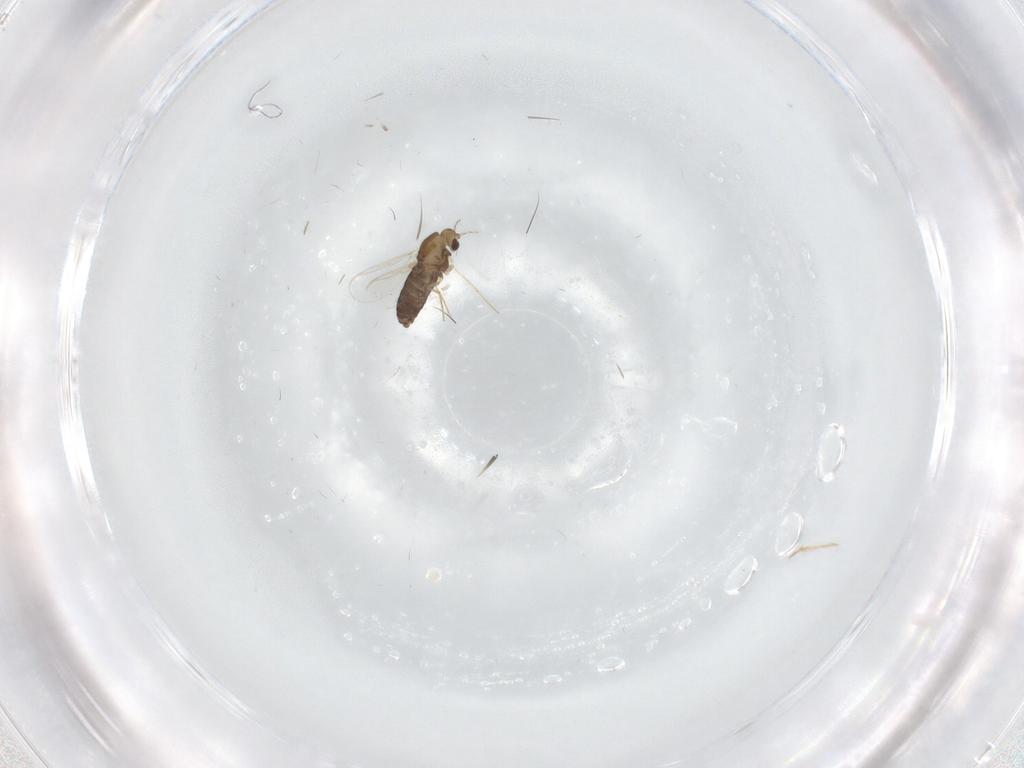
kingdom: Animalia
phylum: Arthropoda
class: Insecta
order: Diptera
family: Chironomidae
